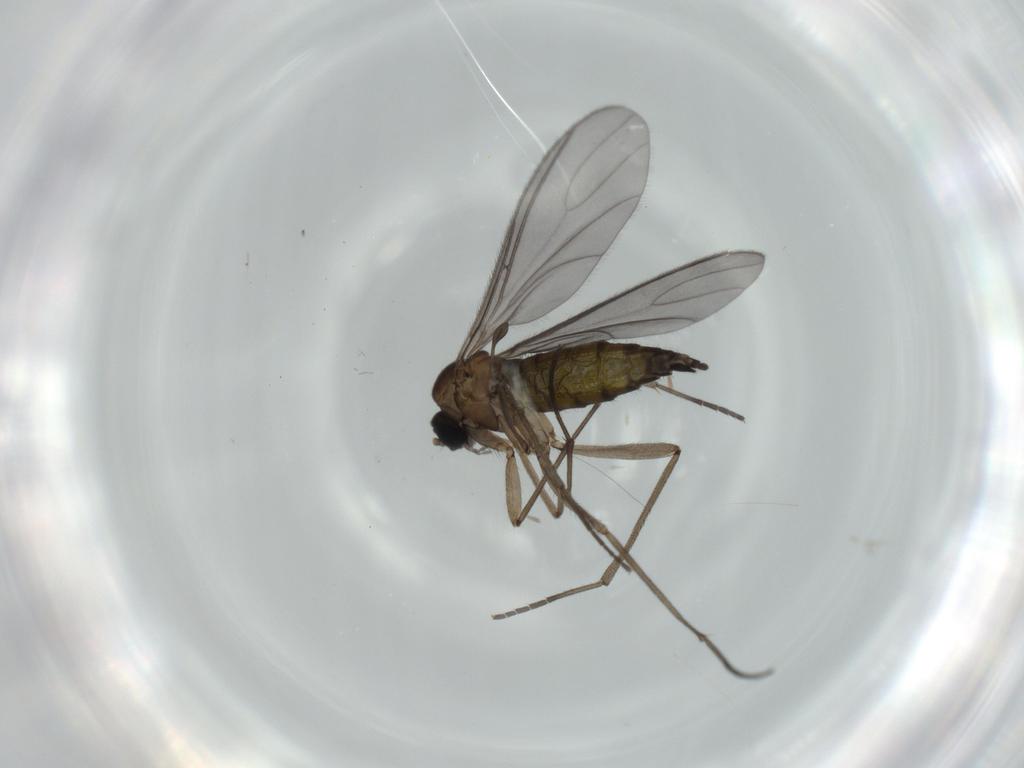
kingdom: Animalia
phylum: Arthropoda
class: Insecta
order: Diptera
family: Sciaridae
